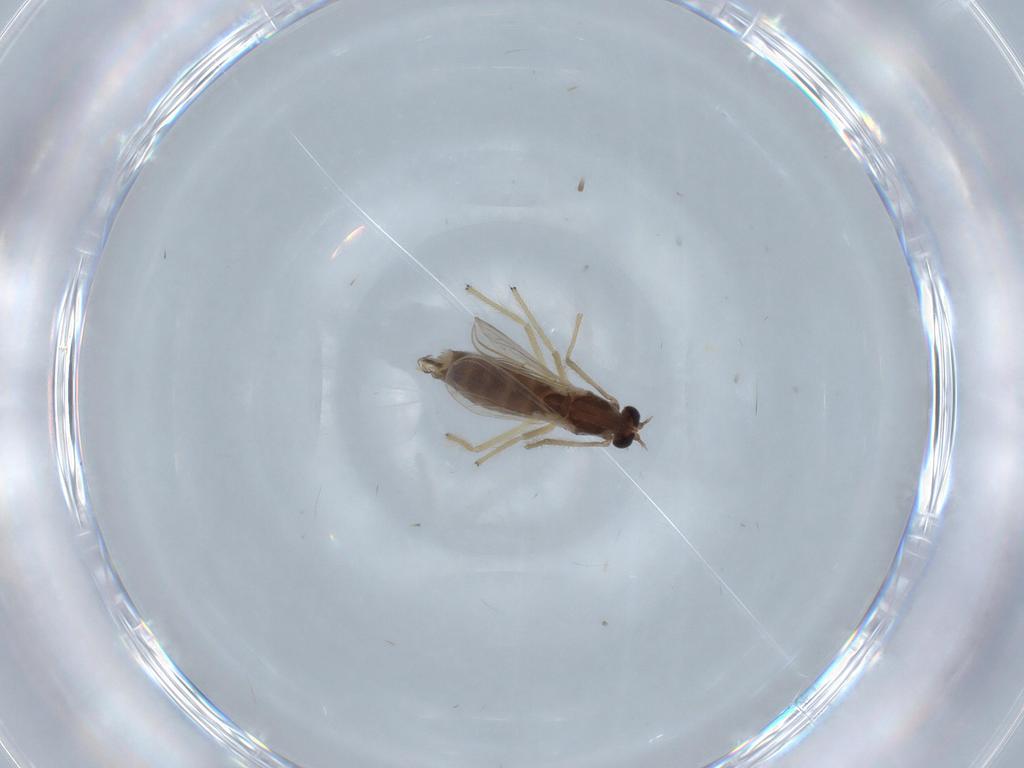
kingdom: Animalia
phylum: Arthropoda
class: Insecta
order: Diptera
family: Chironomidae
